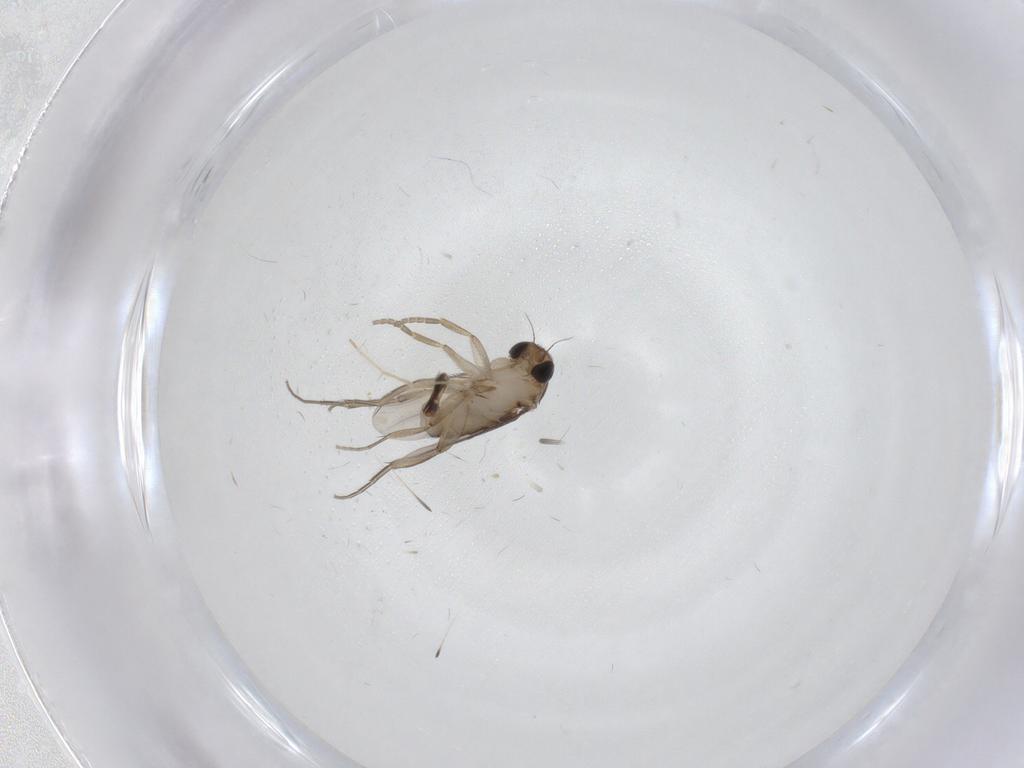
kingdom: Animalia
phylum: Arthropoda
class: Insecta
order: Diptera
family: Phoridae
